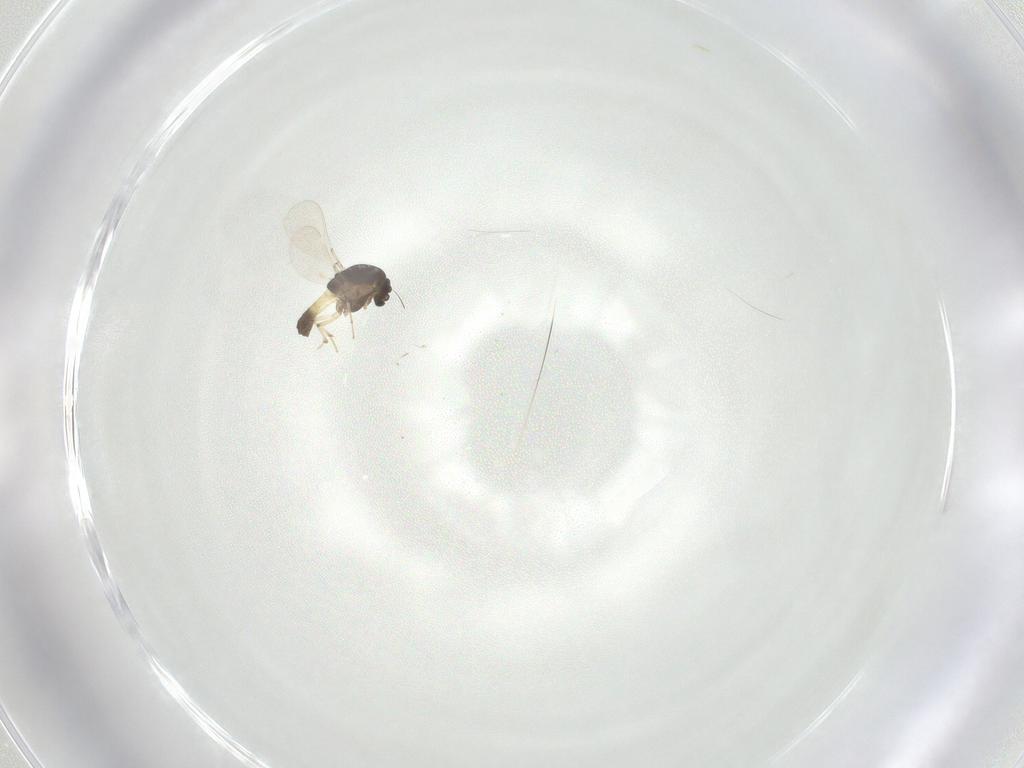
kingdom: Animalia
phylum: Arthropoda
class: Insecta
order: Diptera
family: Chironomidae
